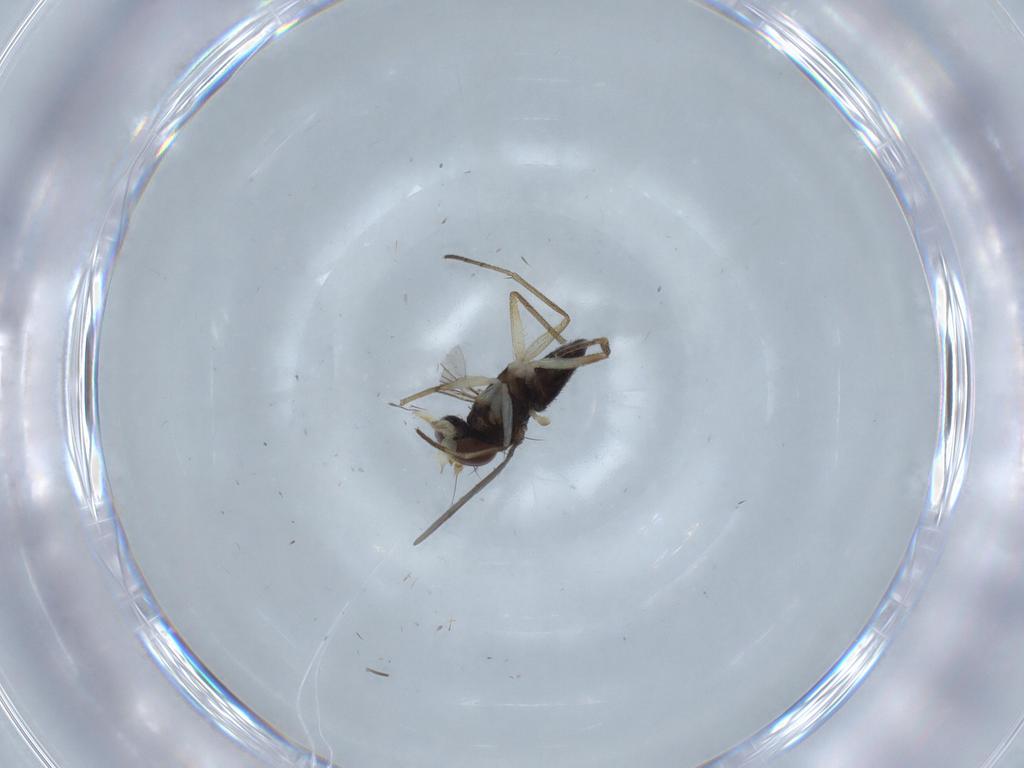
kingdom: Animalia
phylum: Arthropoda
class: Insecta
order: Diptera
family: Dolichopodidae
